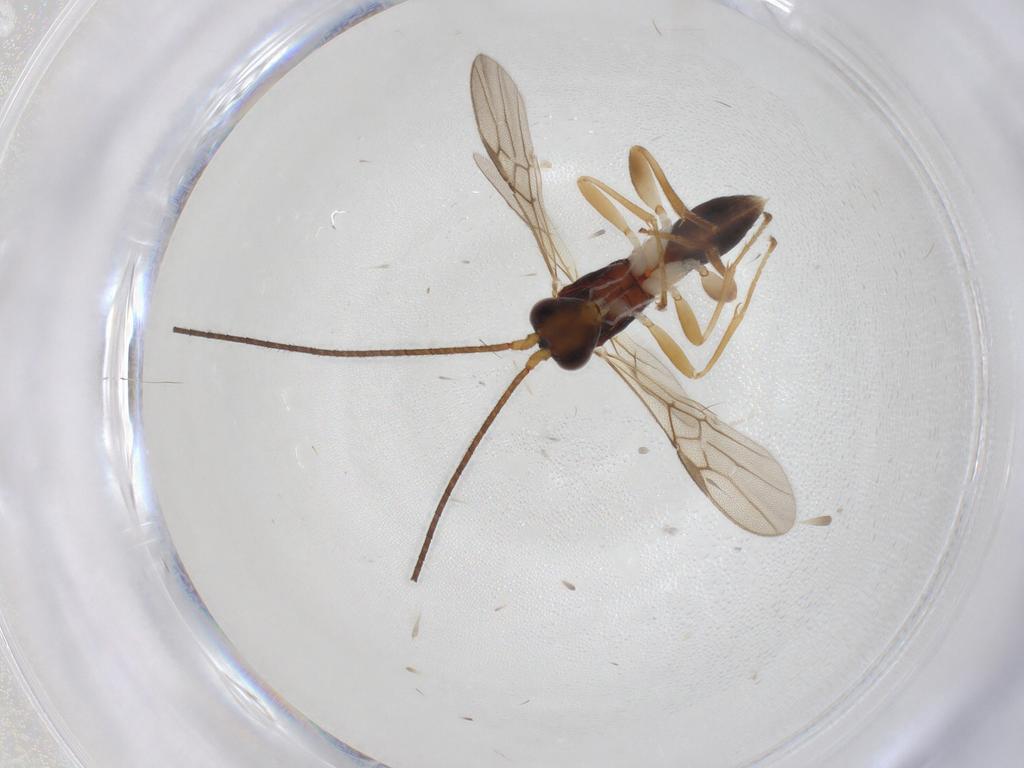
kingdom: Animalia
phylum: Arthropoda
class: Insecta
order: Hymenoptera
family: Braconidae
